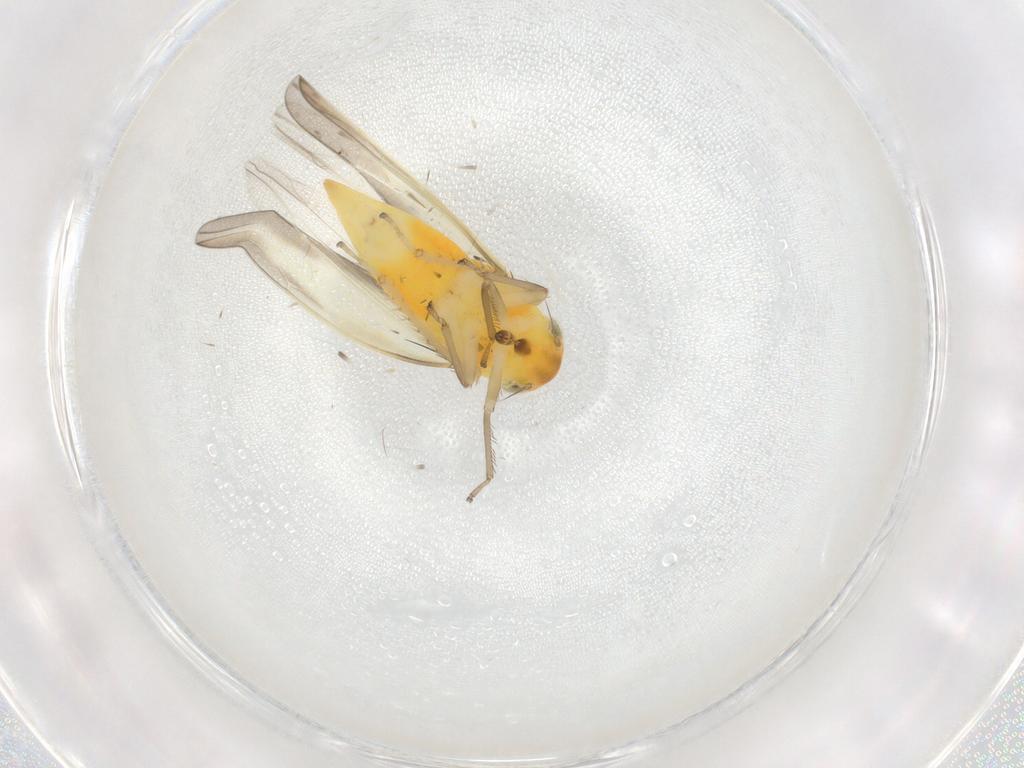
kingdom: Animalia
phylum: Arthropoda
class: Insecta
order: Hemiptera
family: Cicadellidae
